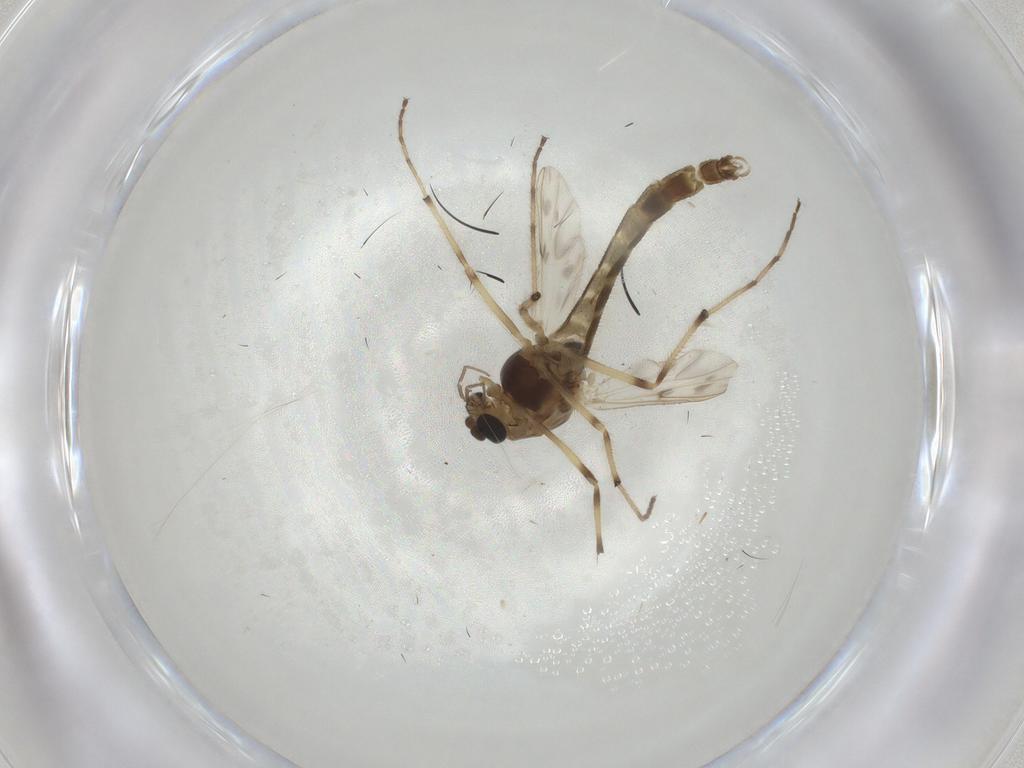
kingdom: Animalia
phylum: Arthropoda
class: Insecta
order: Diptera
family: Chironomidae
